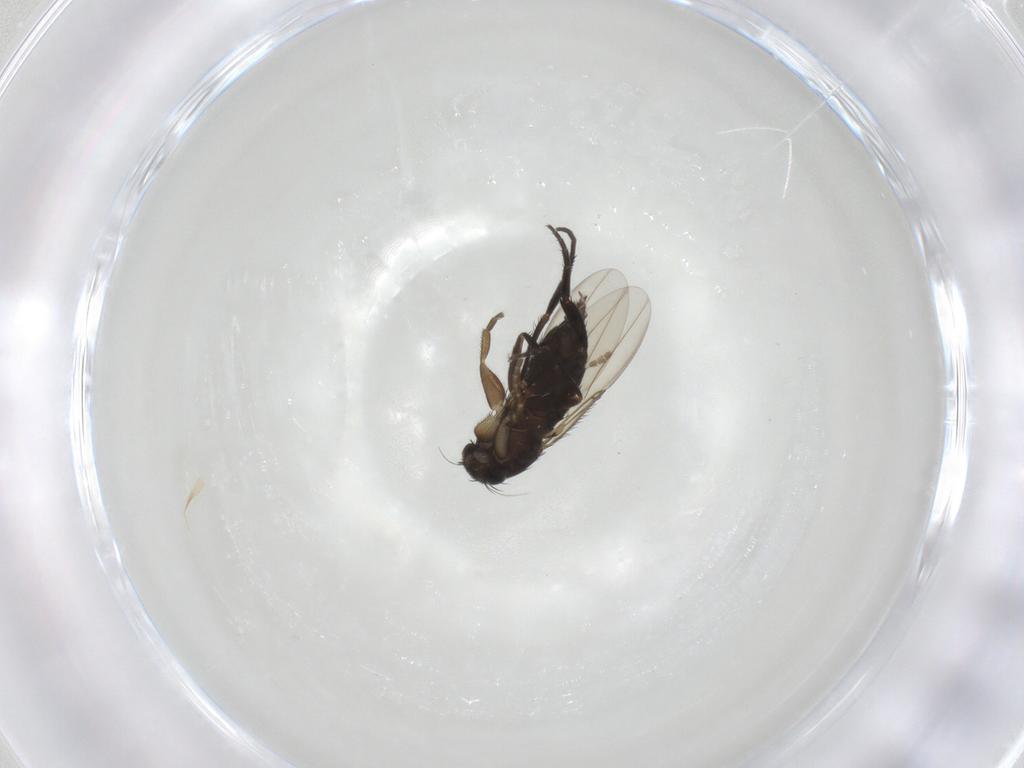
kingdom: Animalia
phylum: Arthropoda
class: Insecta
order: Diptera
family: Phoridae
